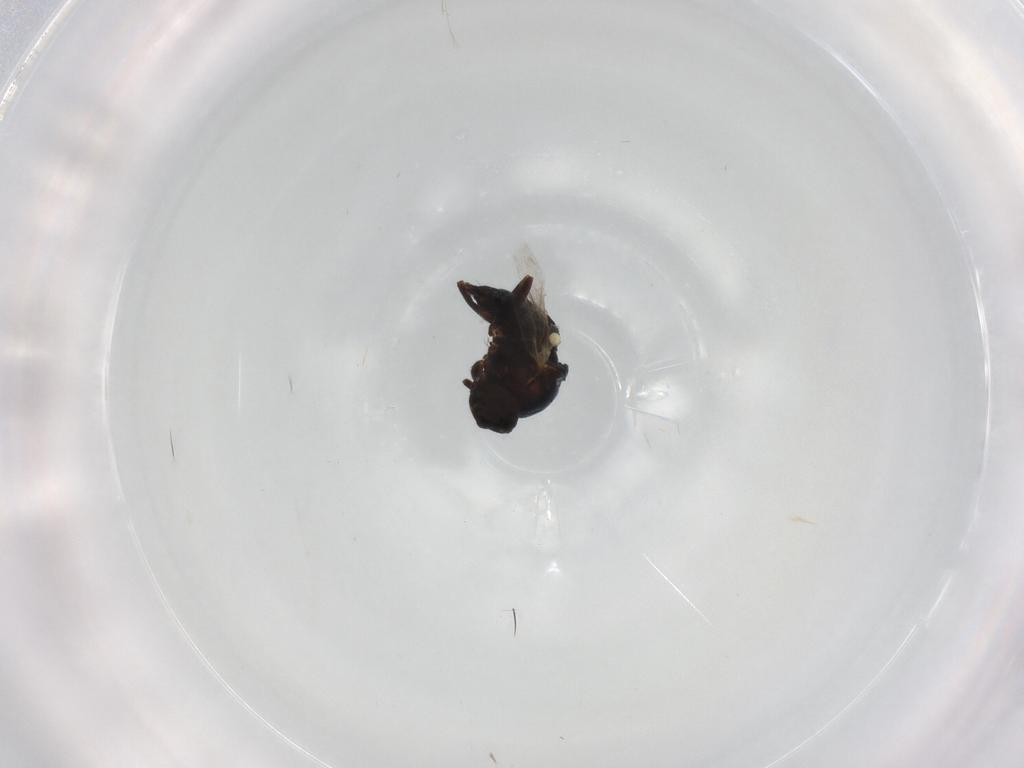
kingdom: Animalia
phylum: Arthropoda
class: Insecta
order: Diptera
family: Agromyzidae
